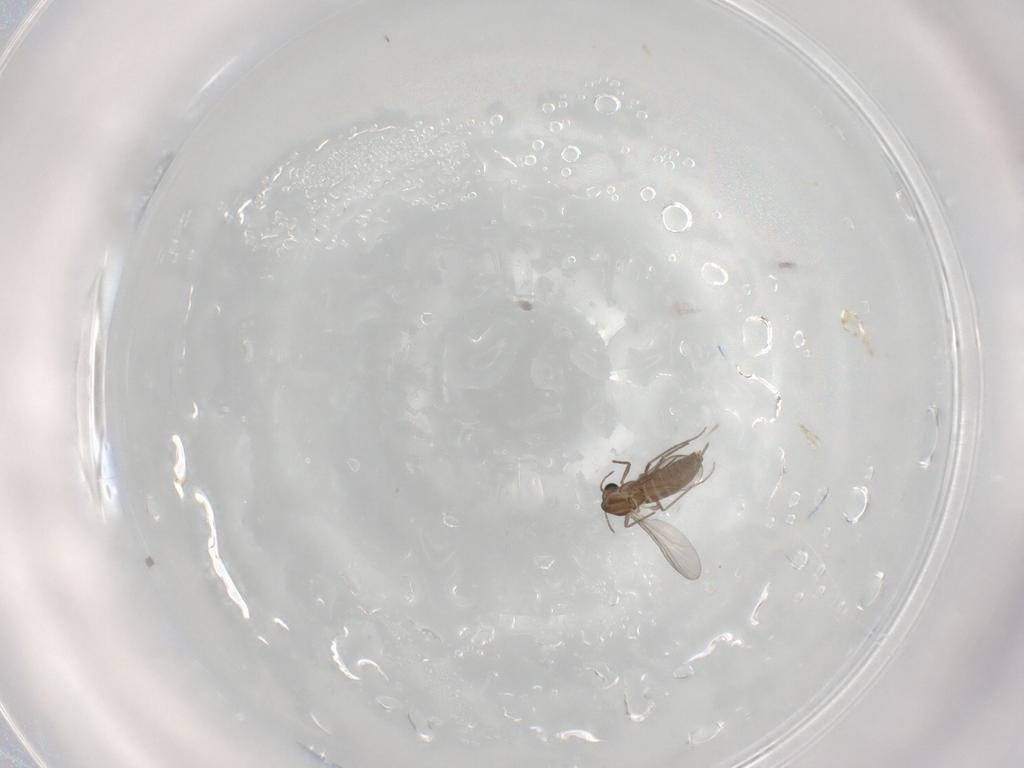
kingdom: Animalia
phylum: Arthropoda
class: Insecta
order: Diptera
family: Chironomidae
